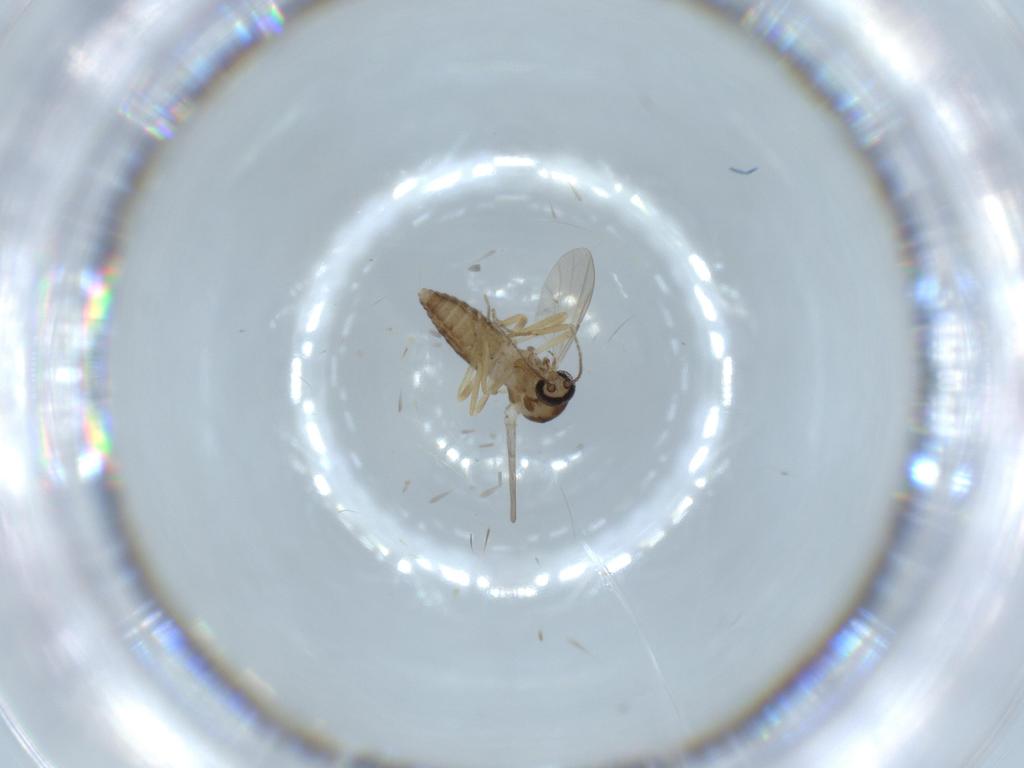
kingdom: Animalia
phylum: Arthropoda
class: Insecta
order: Diptera
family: Ceratopogonidae
